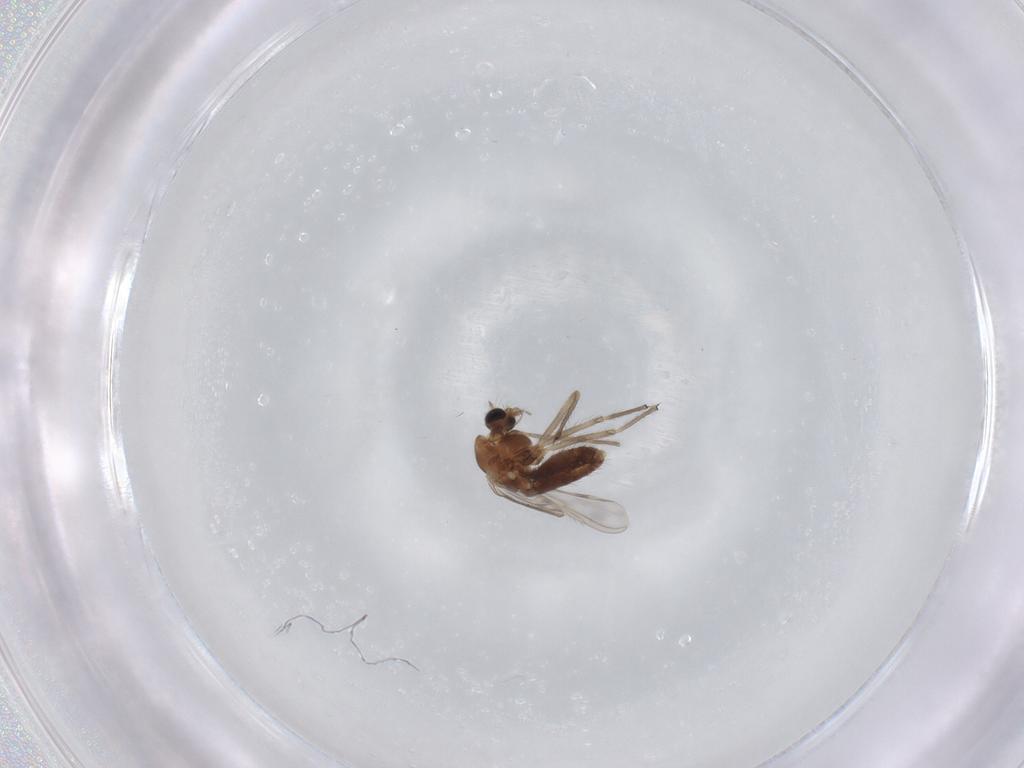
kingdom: Animalia
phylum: Arthropoda
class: Insecta
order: Diptera
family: Chironomidae
